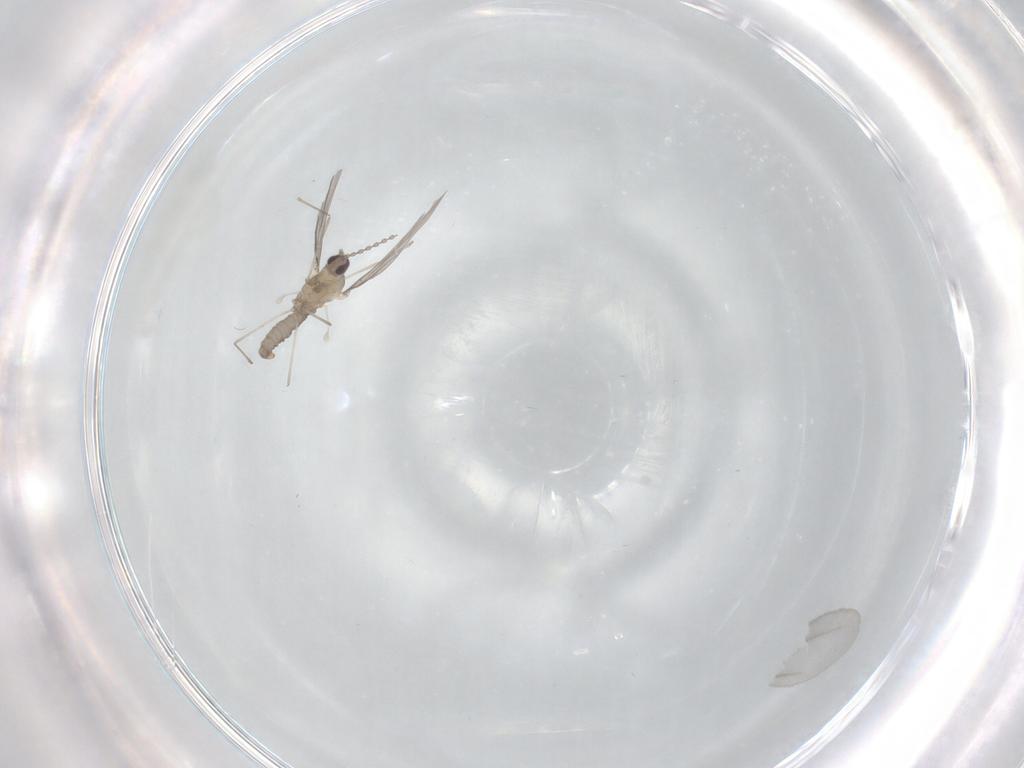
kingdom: Animalia
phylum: Arthropoda
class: Insecta
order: Diptera
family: Cecidomyiidae
